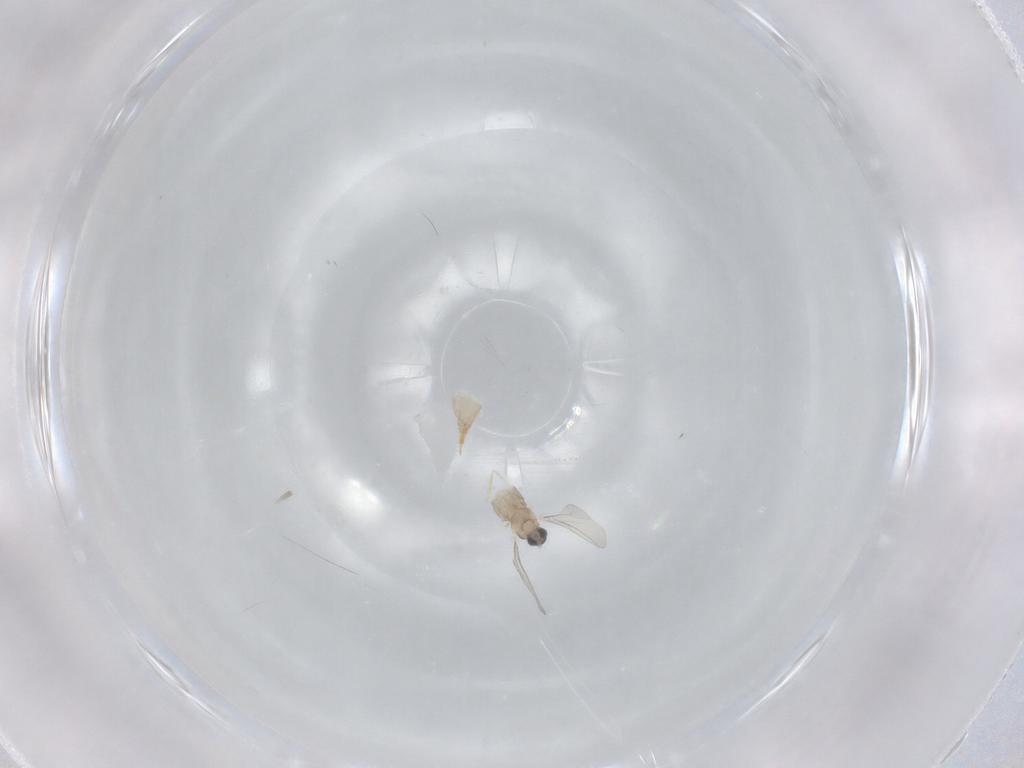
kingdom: Animalia
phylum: Arthropoda
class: Insecta
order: Diptera
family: Cecidomyiidae
